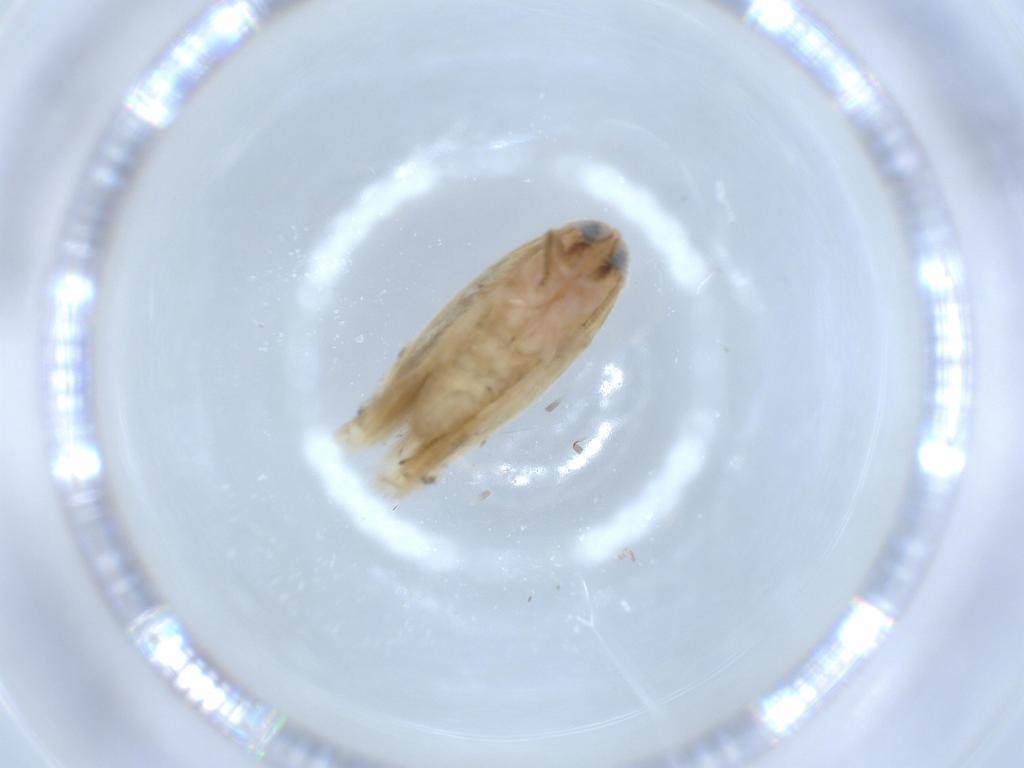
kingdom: Animalia
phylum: Arthropoda
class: Insecta
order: Lepidoptera
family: Opostegidae
